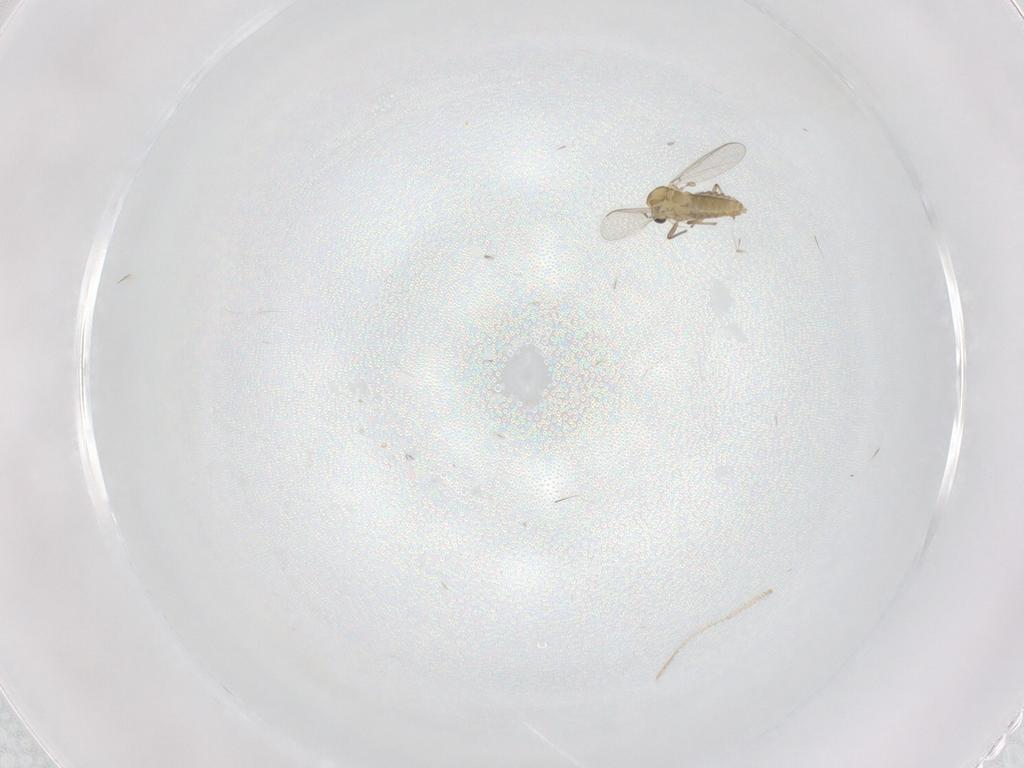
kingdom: Animalia
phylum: Arthropoda
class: Insecta
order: Diptera
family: Chironomidae
